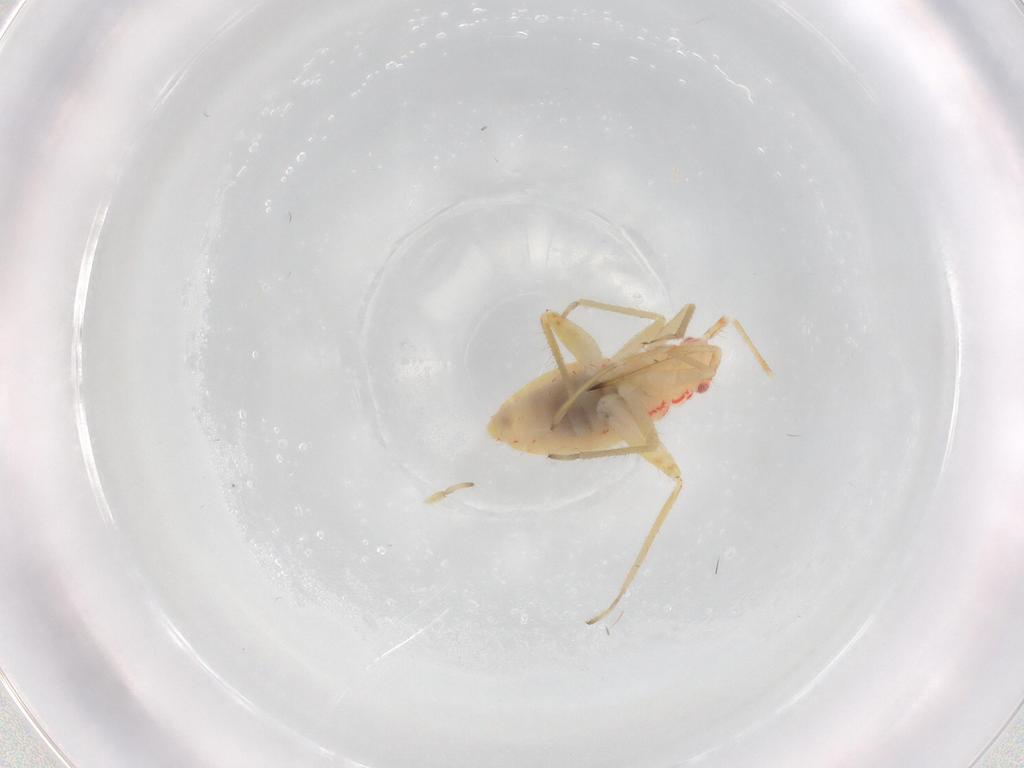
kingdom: Animalia
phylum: Arthropoda
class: Insecta
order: Hemiptera
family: Miridae
